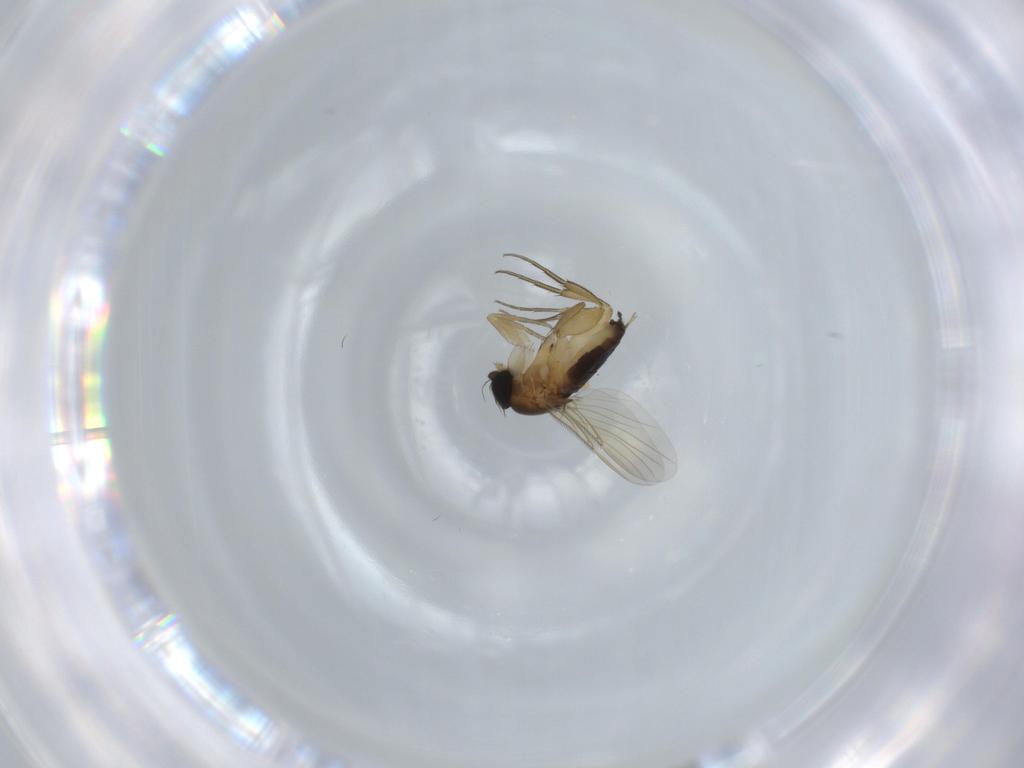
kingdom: Animalia
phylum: Arthropoda
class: Insecta
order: Diptera
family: Phoridae
